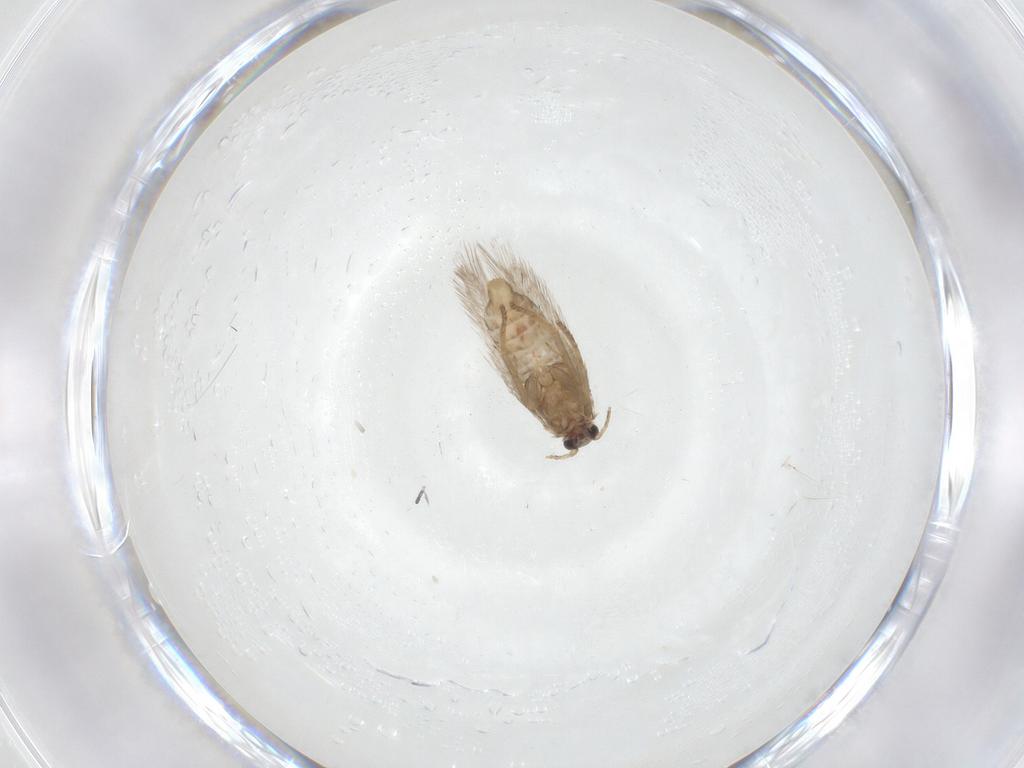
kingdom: Animalia
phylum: Arthropoda
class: Insecta
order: Lepidoptera
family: Nepticulidae
